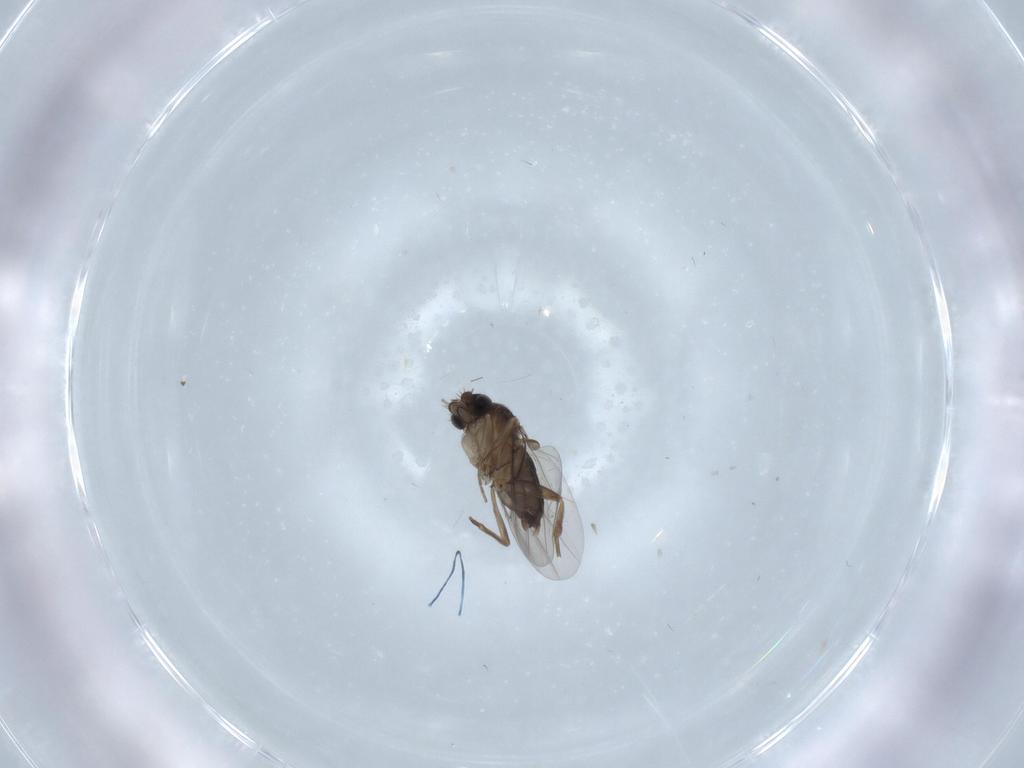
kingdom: Animalia
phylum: Arthropoda
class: Insecta
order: Diptera
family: Phoridae
